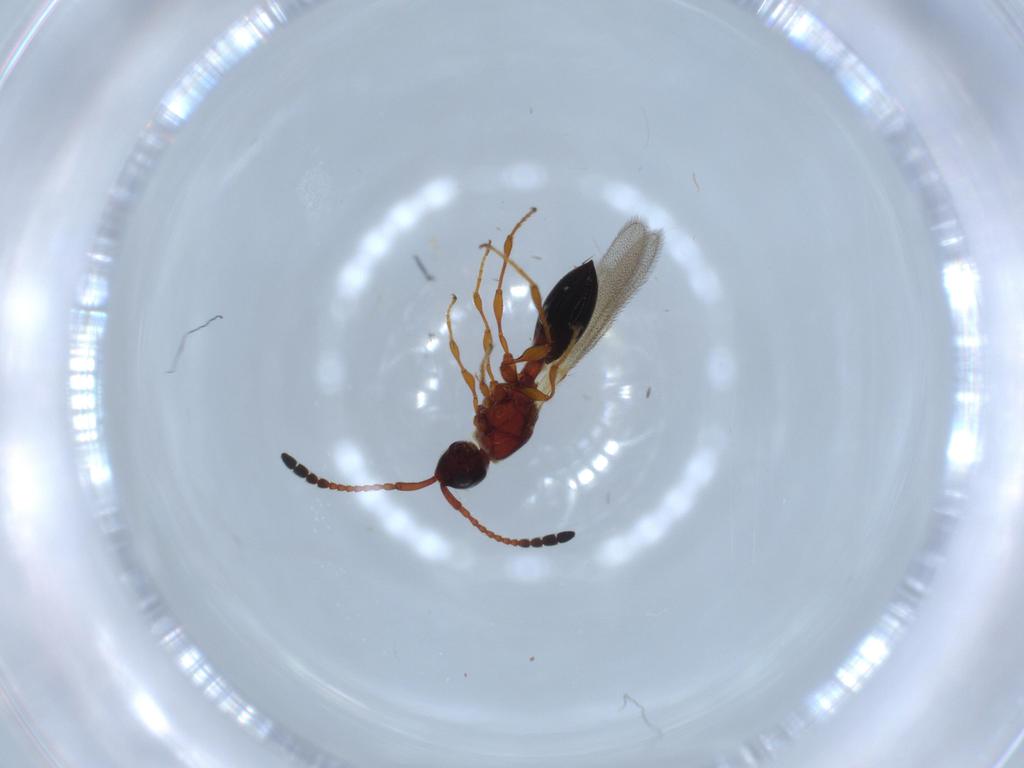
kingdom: Animalia
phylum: Arthropoda
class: Insecta
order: Hymenoptera
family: Diapriidae
